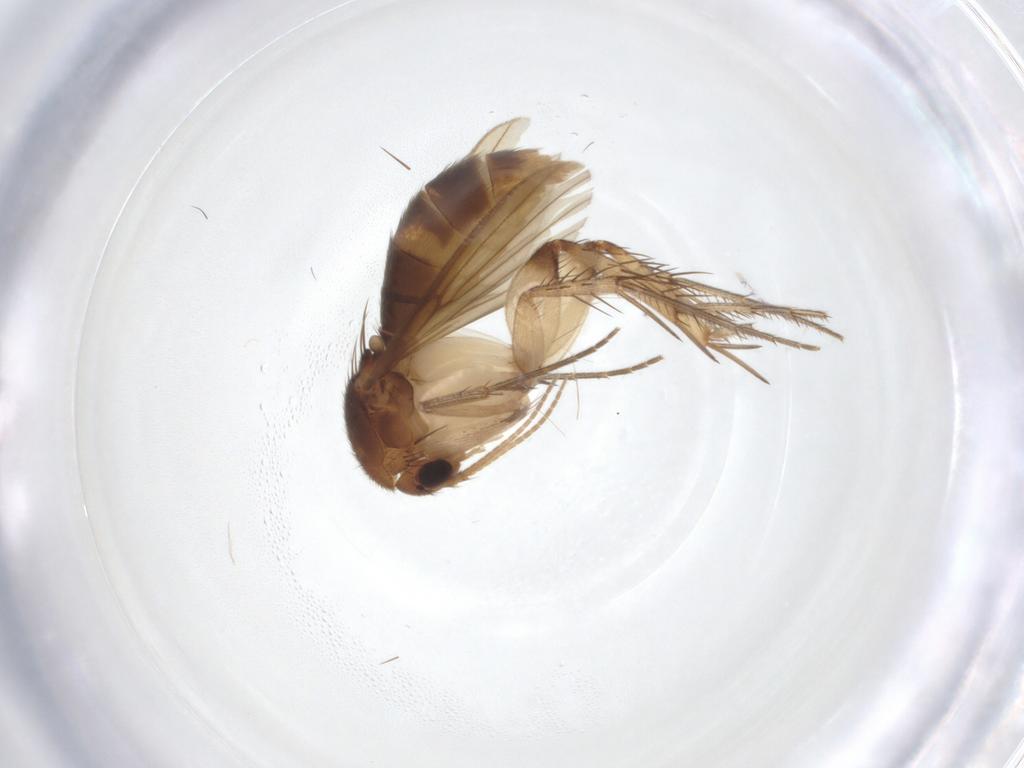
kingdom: Animalia
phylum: Arthropoda
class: Insecta
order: Diptera
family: Mycetophilidae
